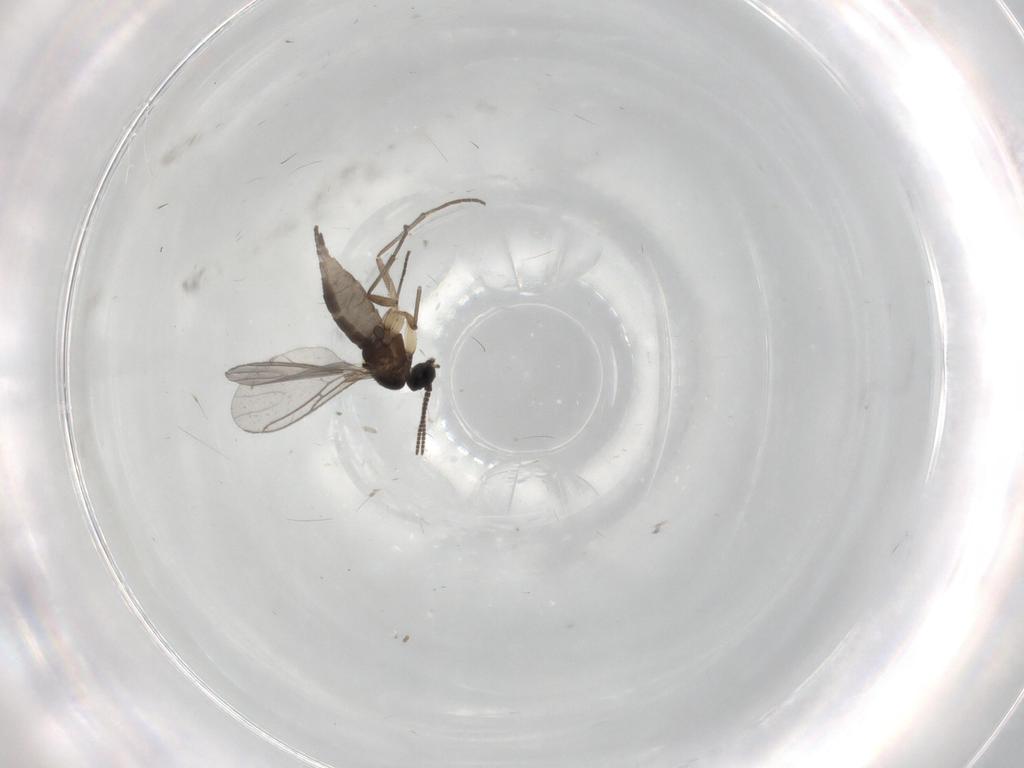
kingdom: Animalia
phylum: Arthropoda
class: Insecta
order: Diptera
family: Sciaridae
